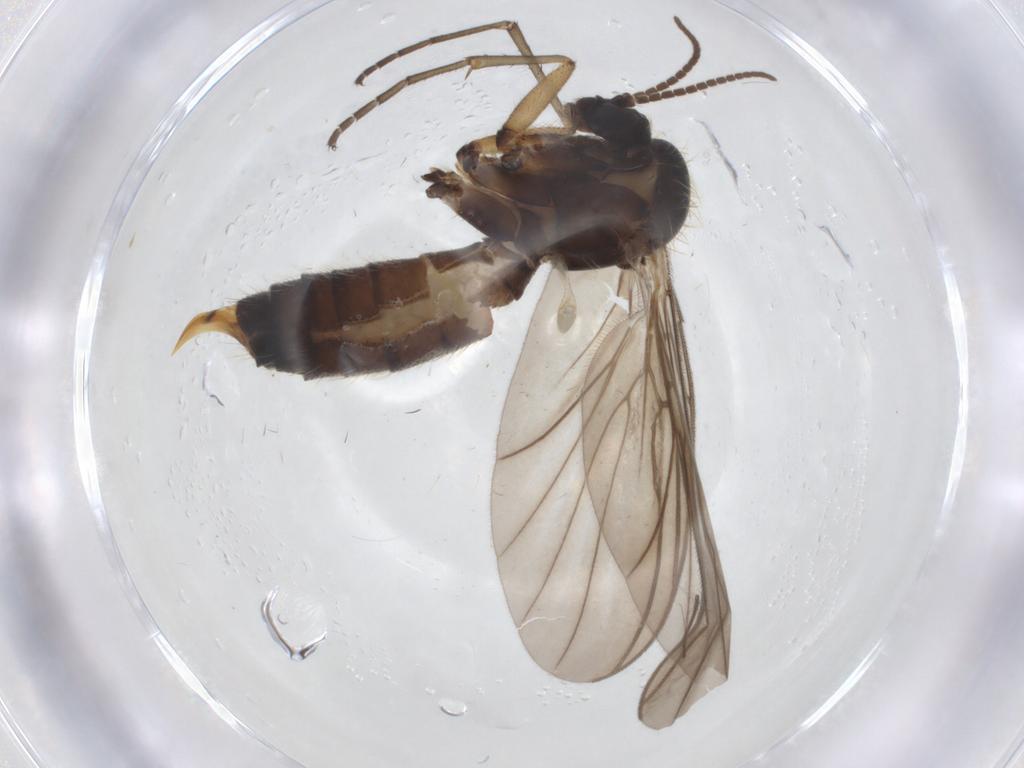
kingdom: Animalia
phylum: Arthropoda
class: Insecta
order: Diptera
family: Mycetophilidae
